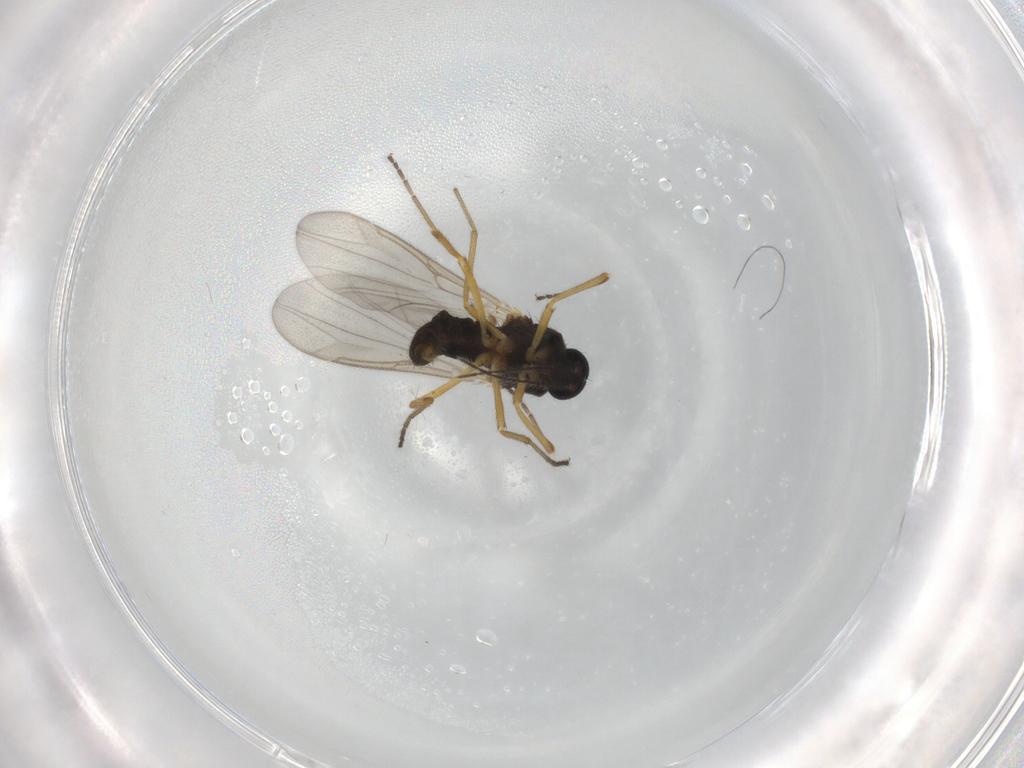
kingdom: Animalia
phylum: Arthropoda
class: Insecta
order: Diptera
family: Ceratopogonidae
